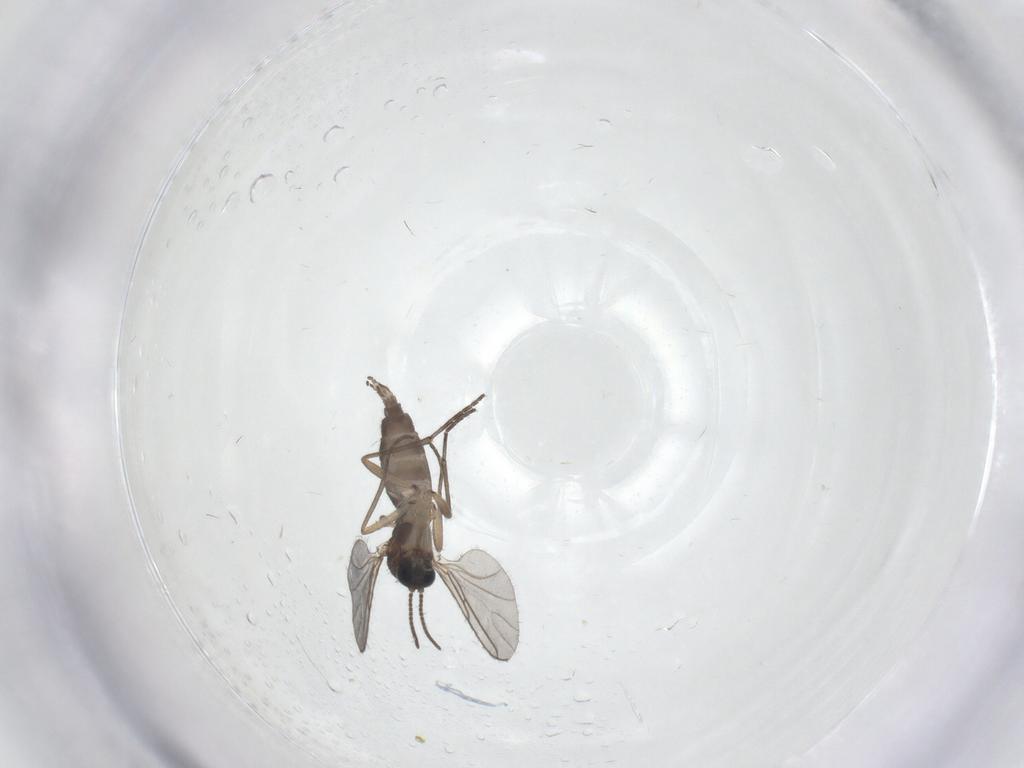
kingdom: Animalia
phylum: Arthropoda
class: Insecta
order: Diptera
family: Sciaridae
